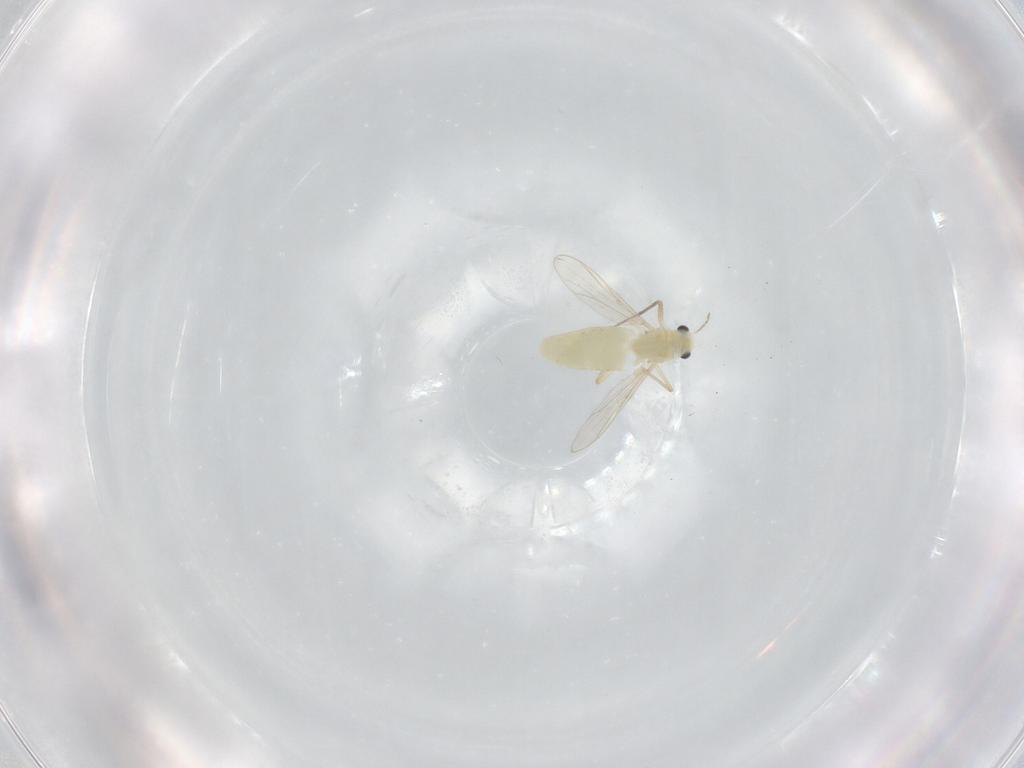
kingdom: Animalia
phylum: Arthropoda
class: Insecta
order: Diptera
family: Chironomidae
